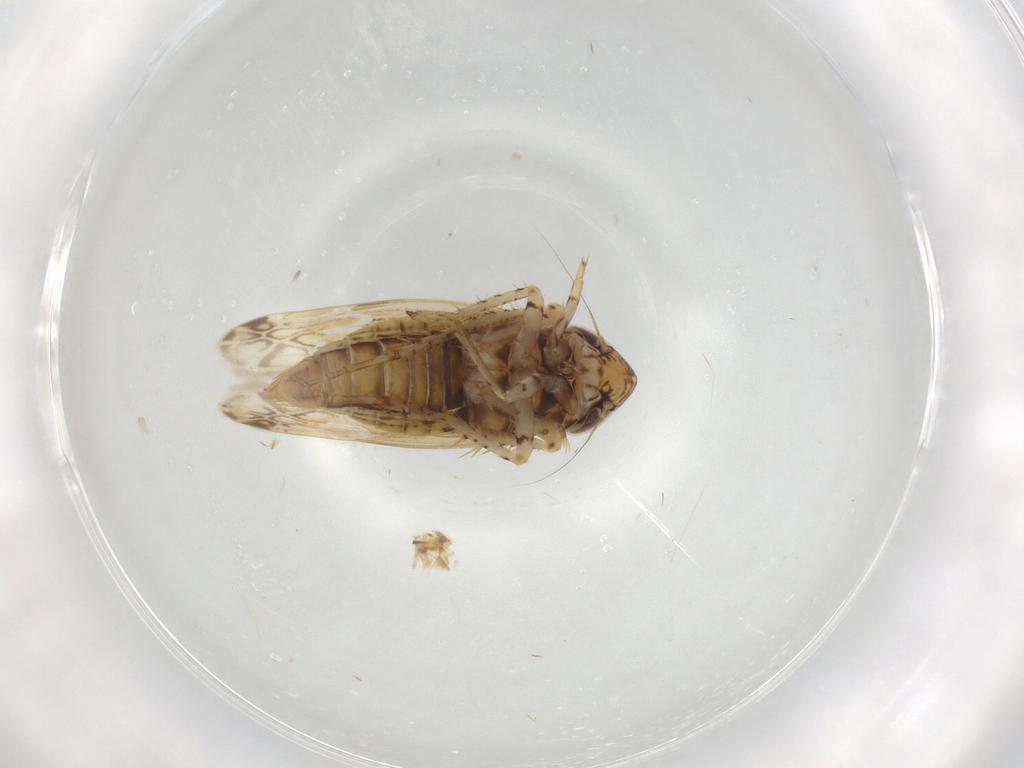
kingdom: Animalia
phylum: Arthropoda
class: Insecta
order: Hemiptera
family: Cicadellidae
